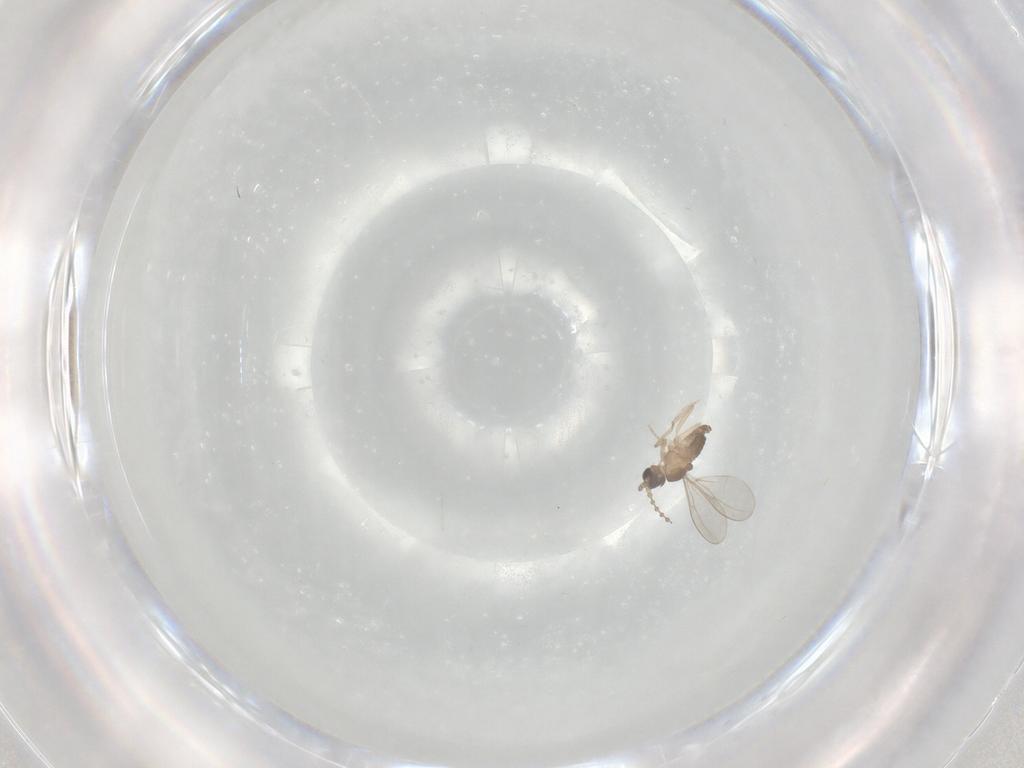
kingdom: Animalia
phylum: Arthropoda
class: Insecta
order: Diptera
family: Cecidomyiidae
